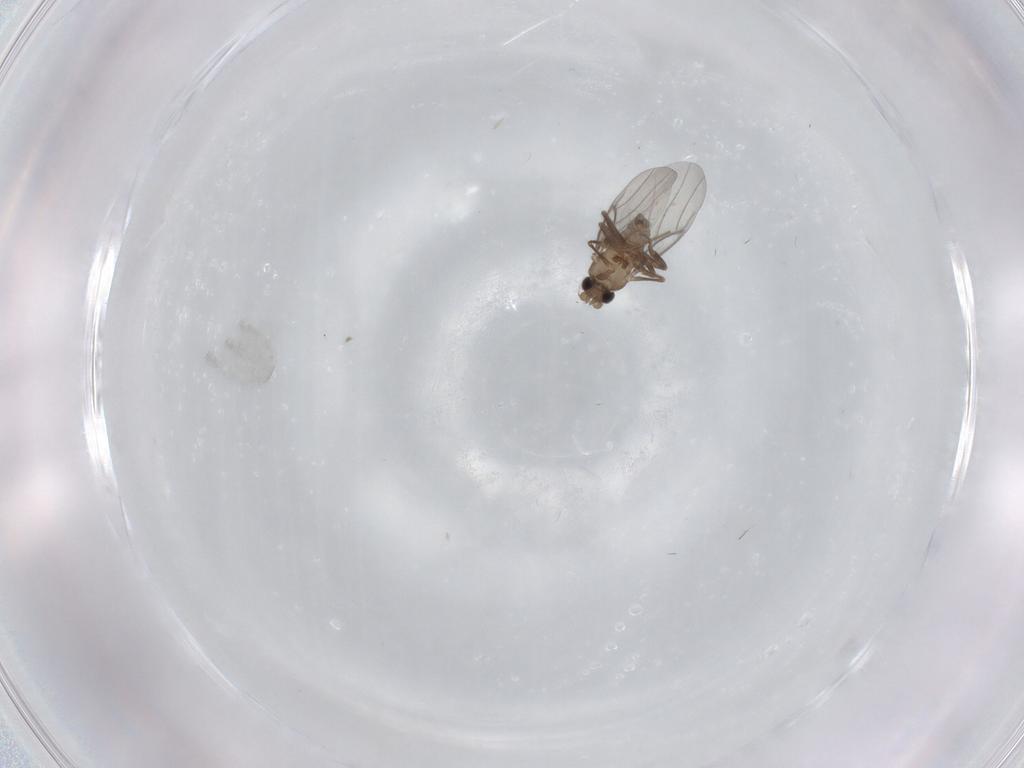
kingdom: Animalia
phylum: Arthropoda
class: Insecta
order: Diptera
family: Cecidomyiidae
